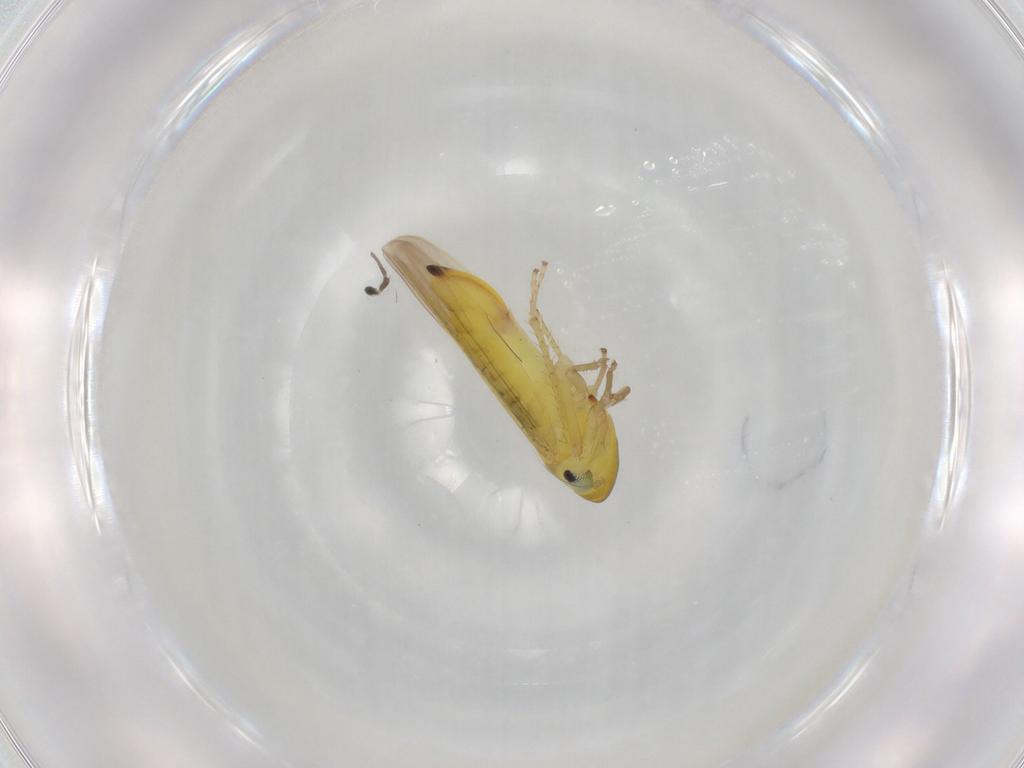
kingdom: Animalia
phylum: Arthropoda
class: Insecta
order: Hemiptera
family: Cicadellidae
